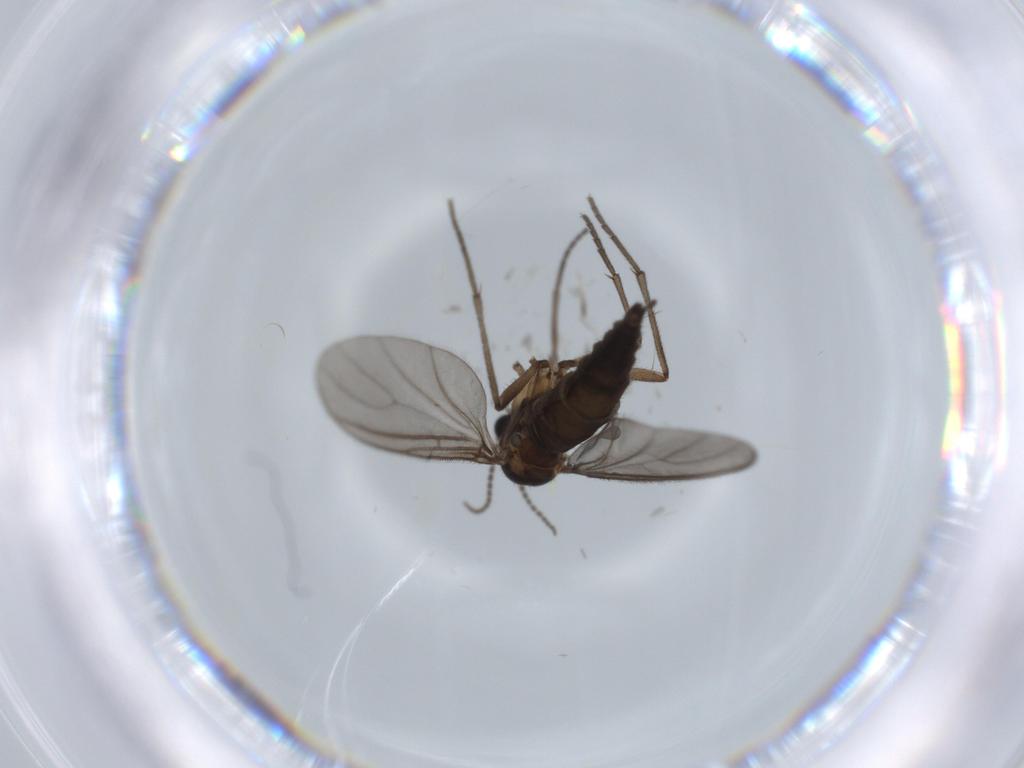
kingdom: Animalia
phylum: Arthropoda
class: Insecta
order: Diptera
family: Sciaridae
